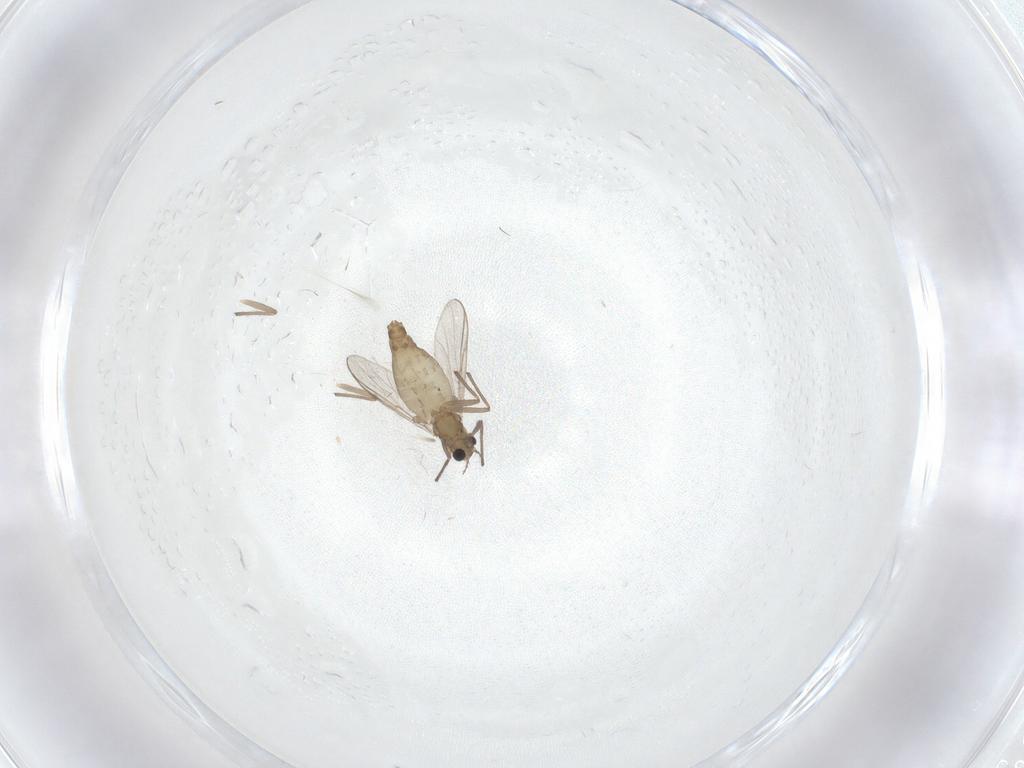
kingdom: Animalia
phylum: Arthropoda
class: Insecta
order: Diptera
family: Chironomidae
